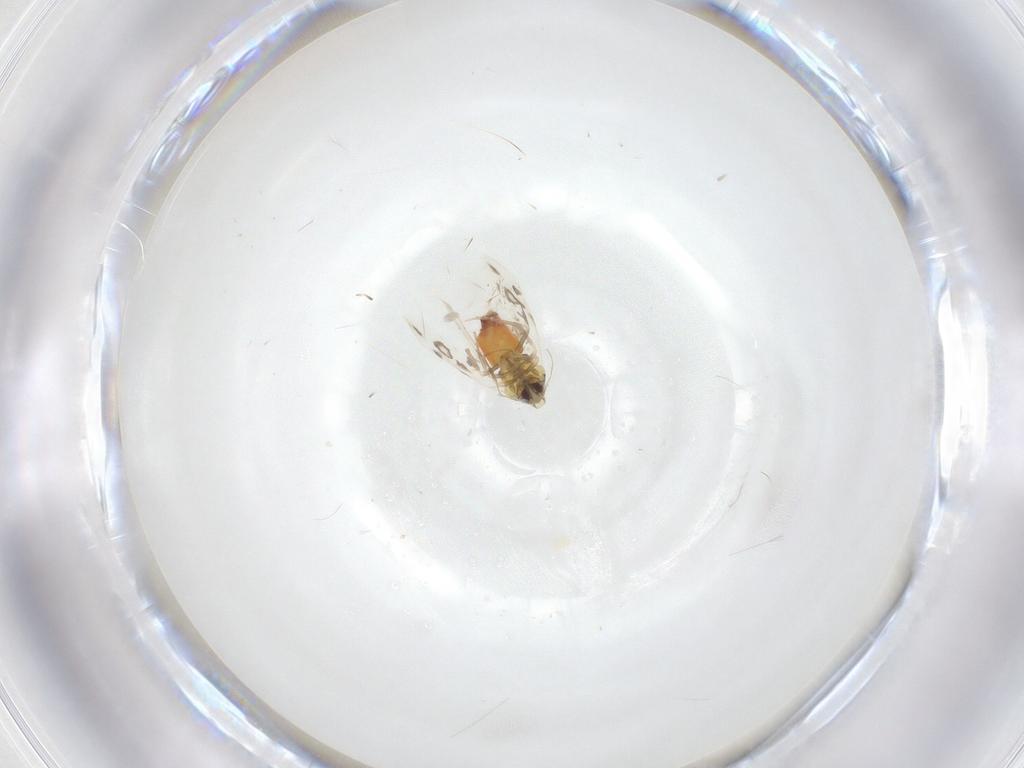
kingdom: Animalia
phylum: Arthropoda
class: Insecta
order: Hemiptera
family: Aleyrodidae
